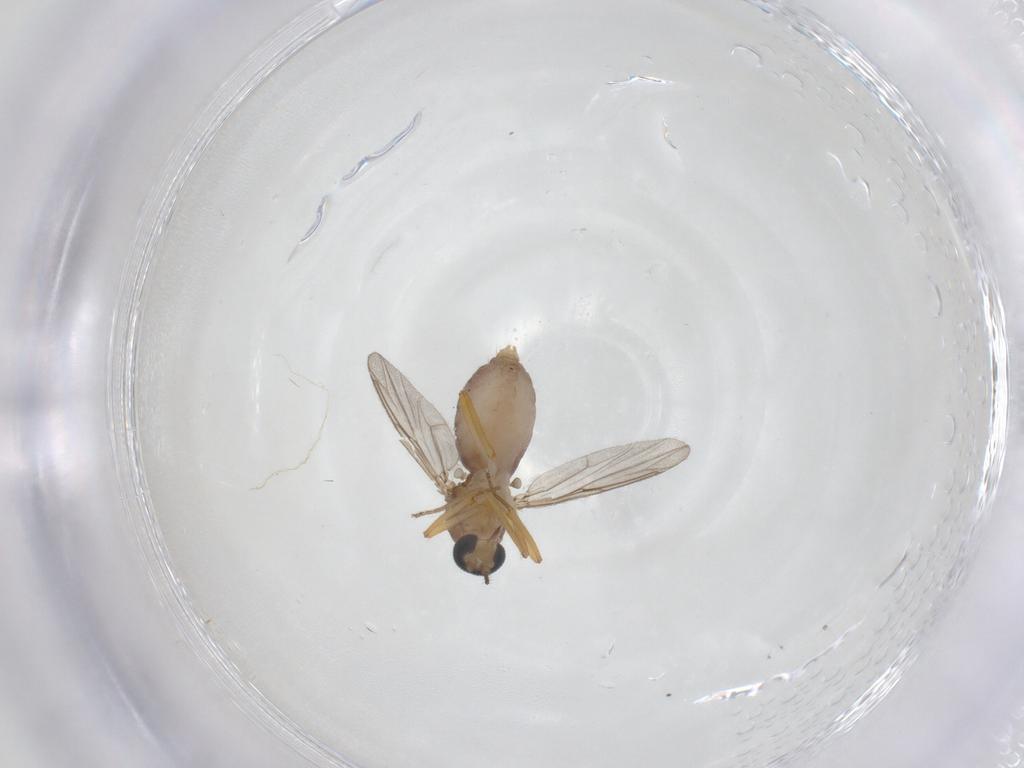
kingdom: Animalia
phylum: Arthropoda
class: Insecta
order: Diptera
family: Ceratopogonidae
